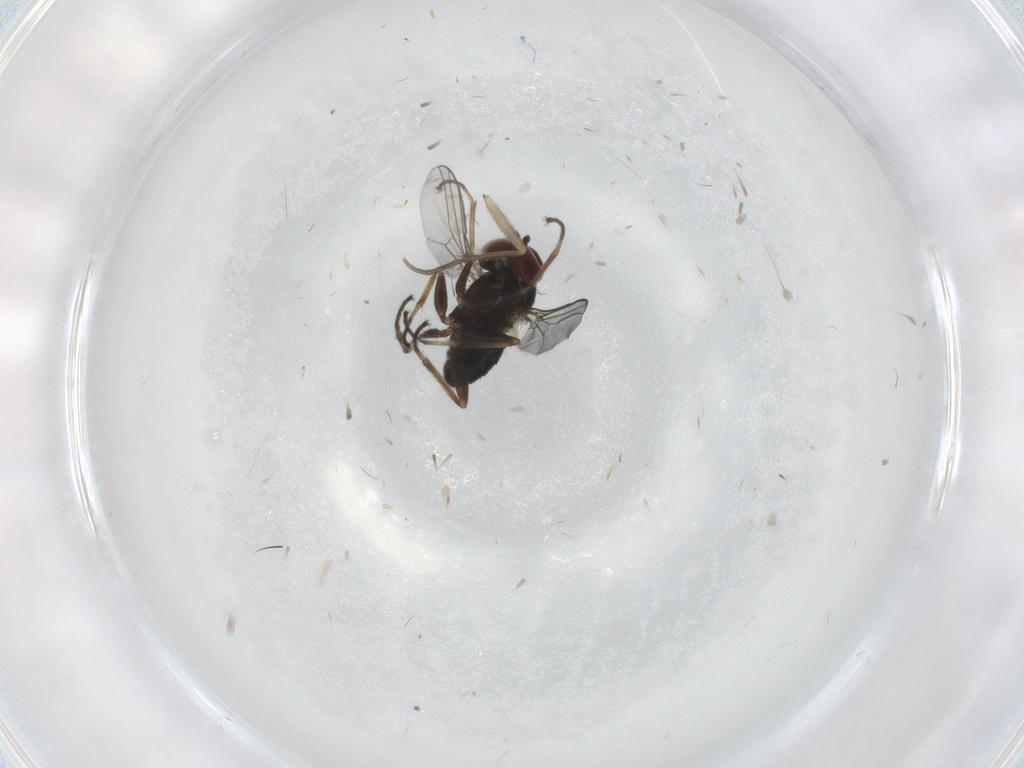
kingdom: Animalia
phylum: Arthropoda
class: Insecta
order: Diptera
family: Dolichopodidae
